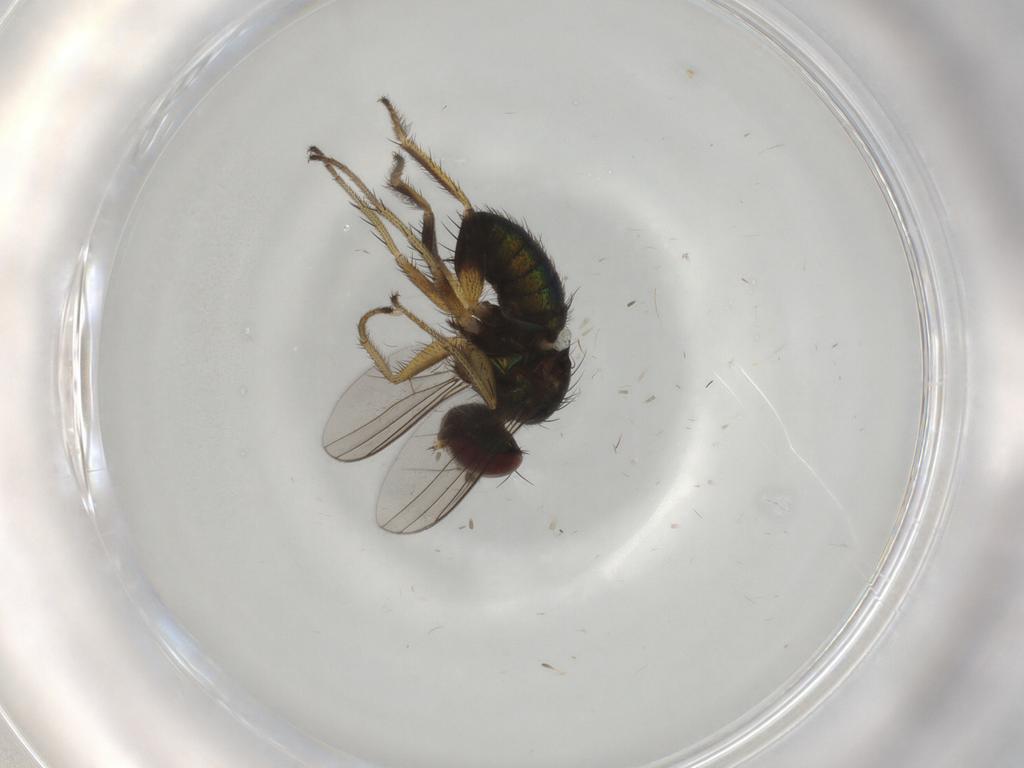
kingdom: Animalia
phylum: Arthropoda
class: Insecta
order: Diptera
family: Dolichopodidae
